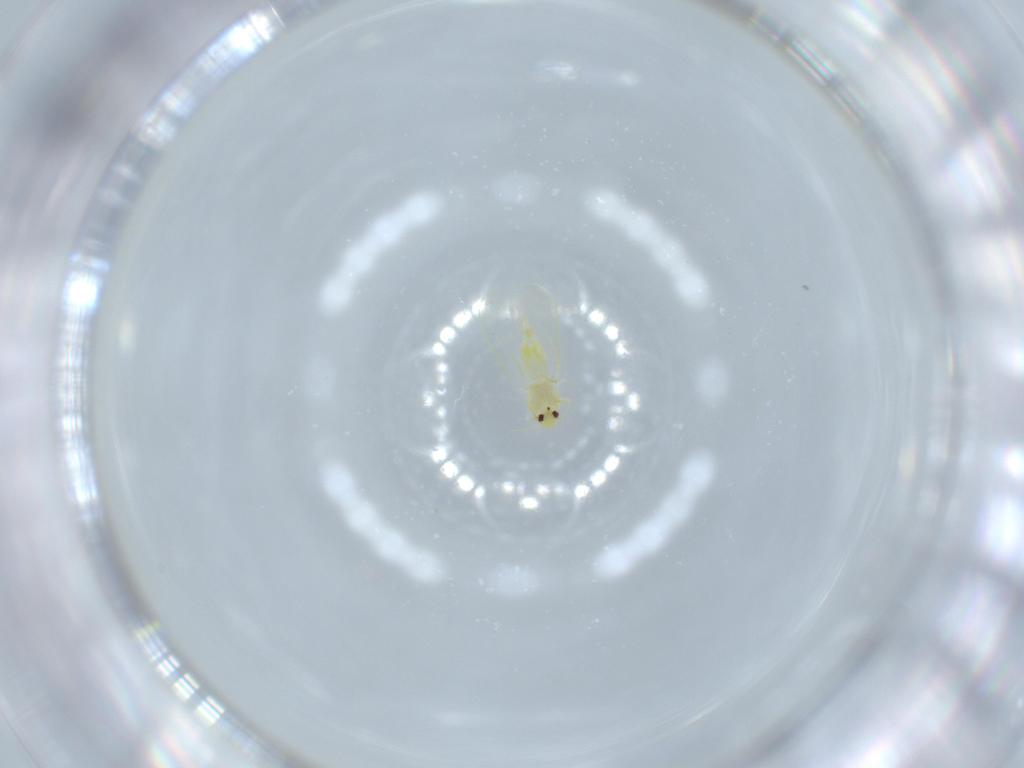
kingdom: Animalia
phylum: Arthropoda
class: Insecta
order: Hemiptera
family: Aleyrodidae
